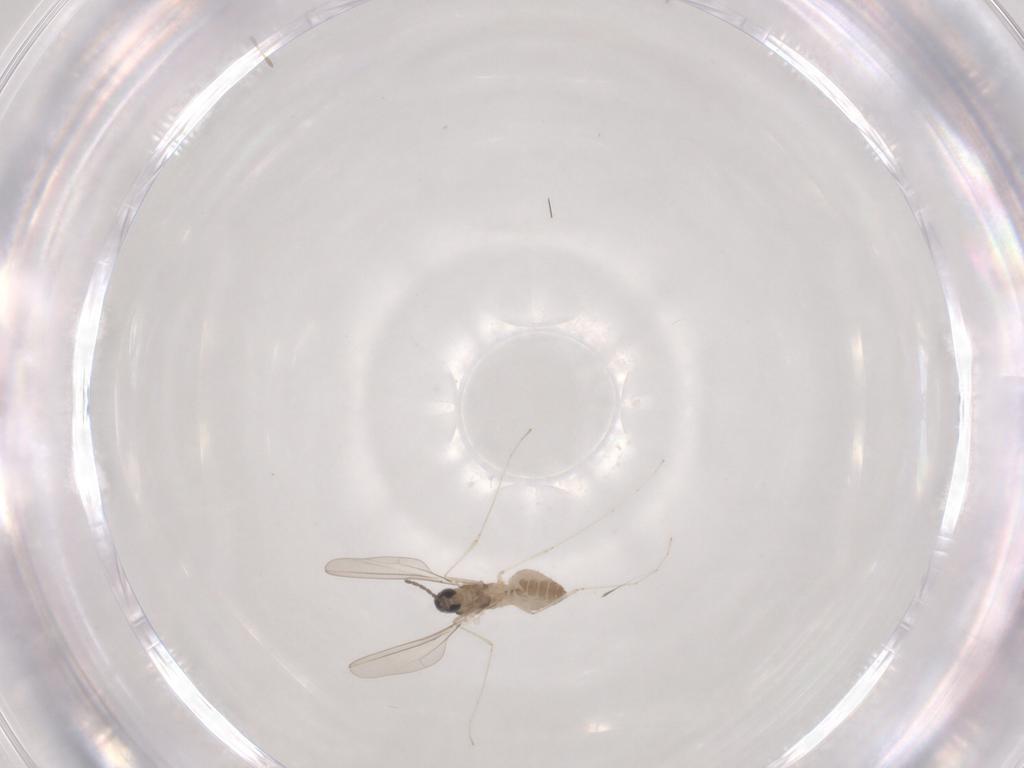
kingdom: Animalia
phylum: Arthropoda
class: Insecta
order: Diptera
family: Cecidomyiidae
